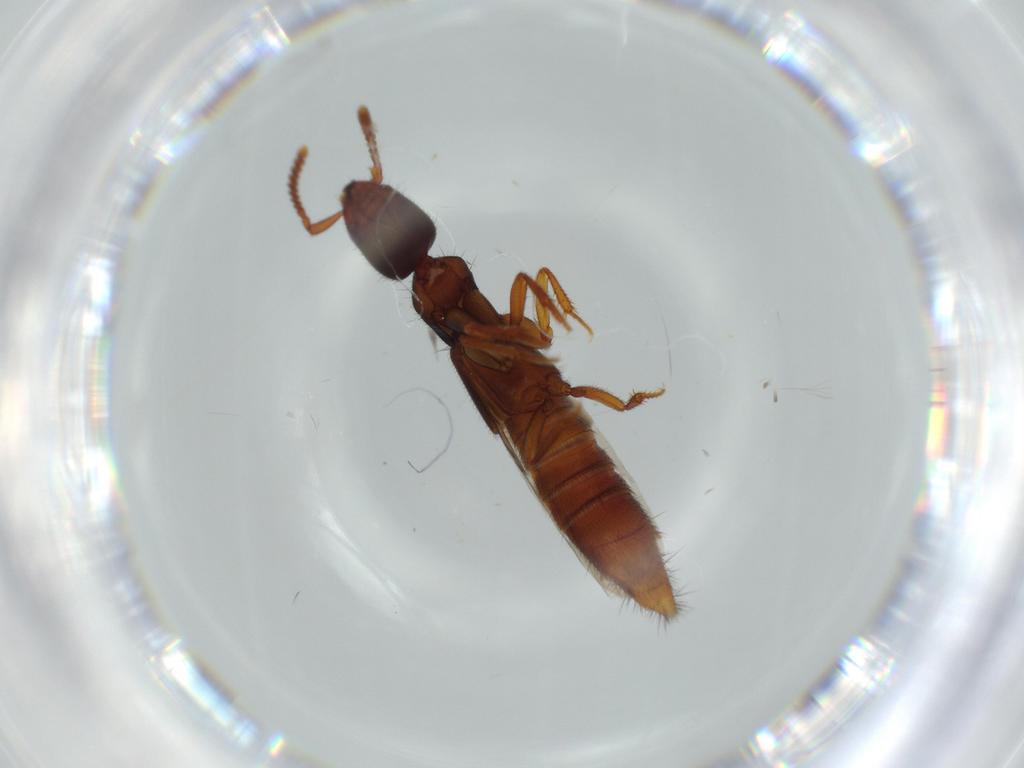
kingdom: Animalia
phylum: Arthropoda
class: Insecta
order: Coleoptera
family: Staphylinidae
